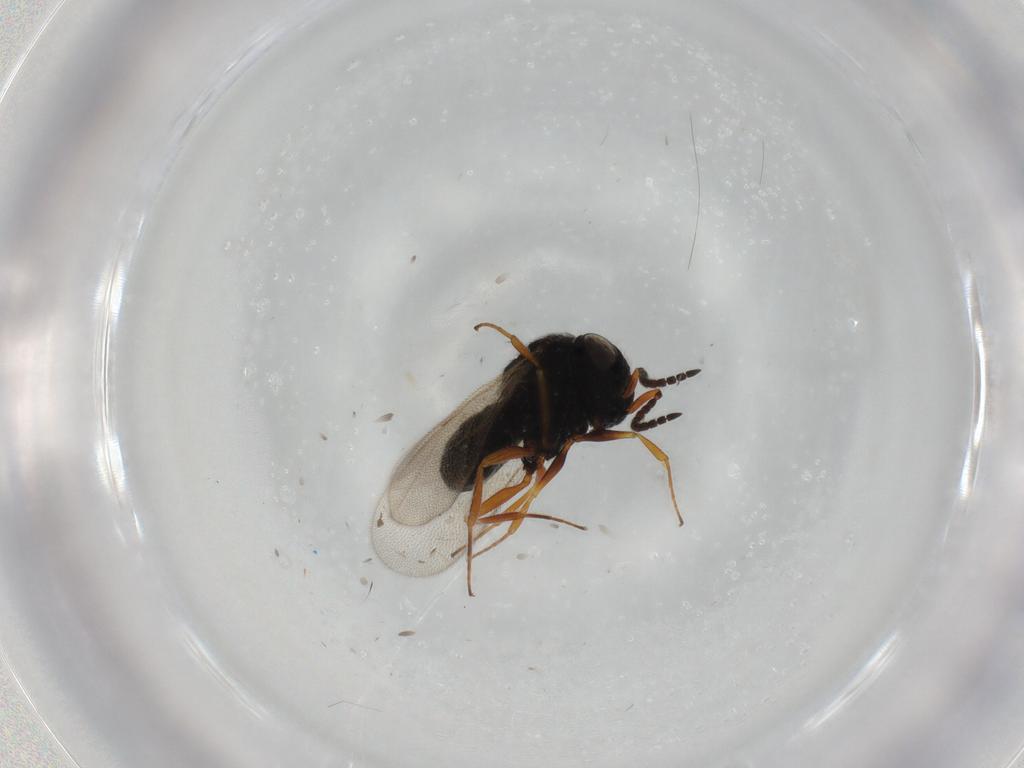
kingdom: Animalia
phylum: Arthropoda
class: Insecta
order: Hymenoptera
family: Scelionidae
